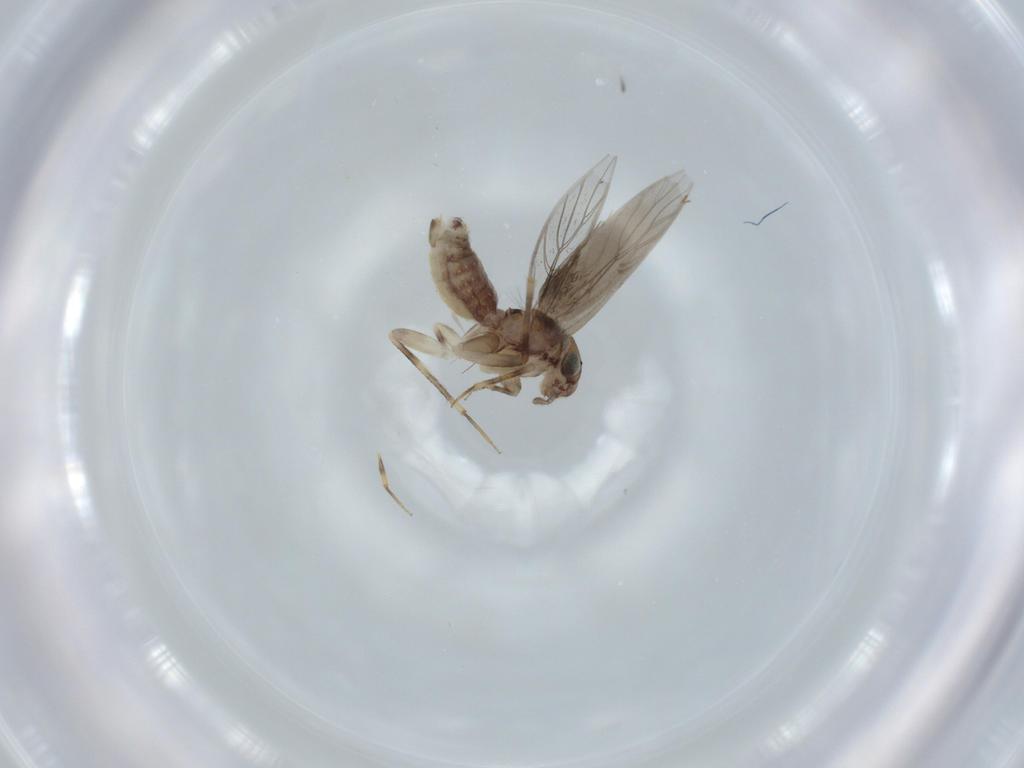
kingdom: Animalia
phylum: Arthropoda
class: Insecta
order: Psocodea
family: Lepidopsocidae
